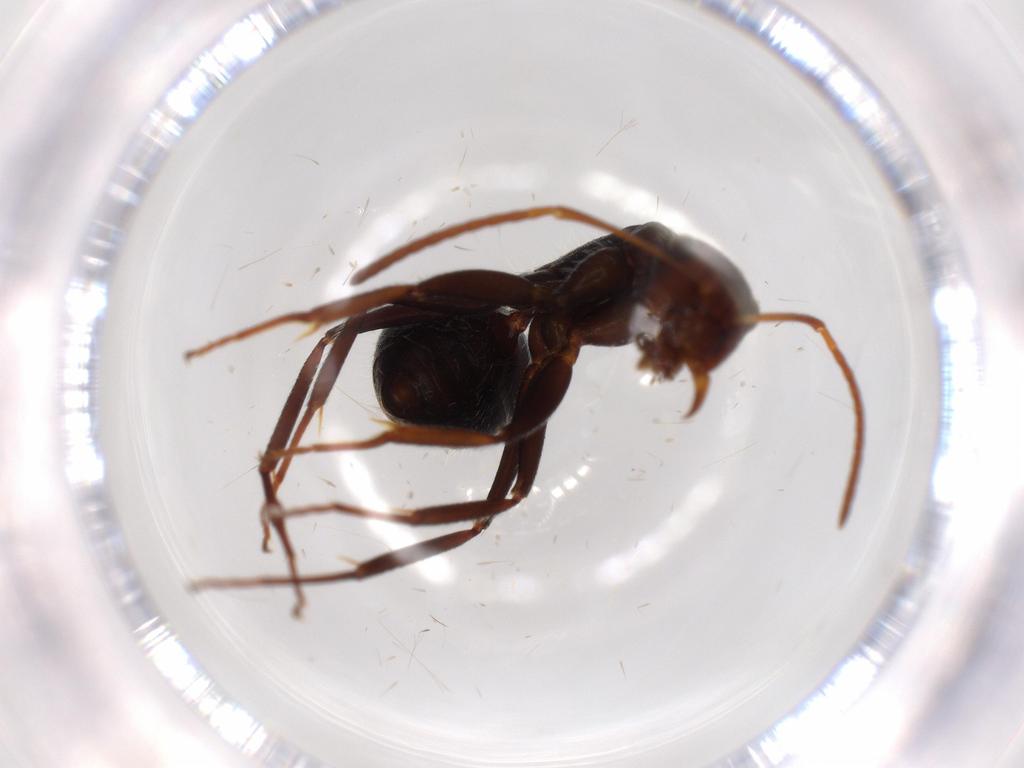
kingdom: Animalia
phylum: Arthropoda
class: Insecta
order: Hymenoptera
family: Formicidae
